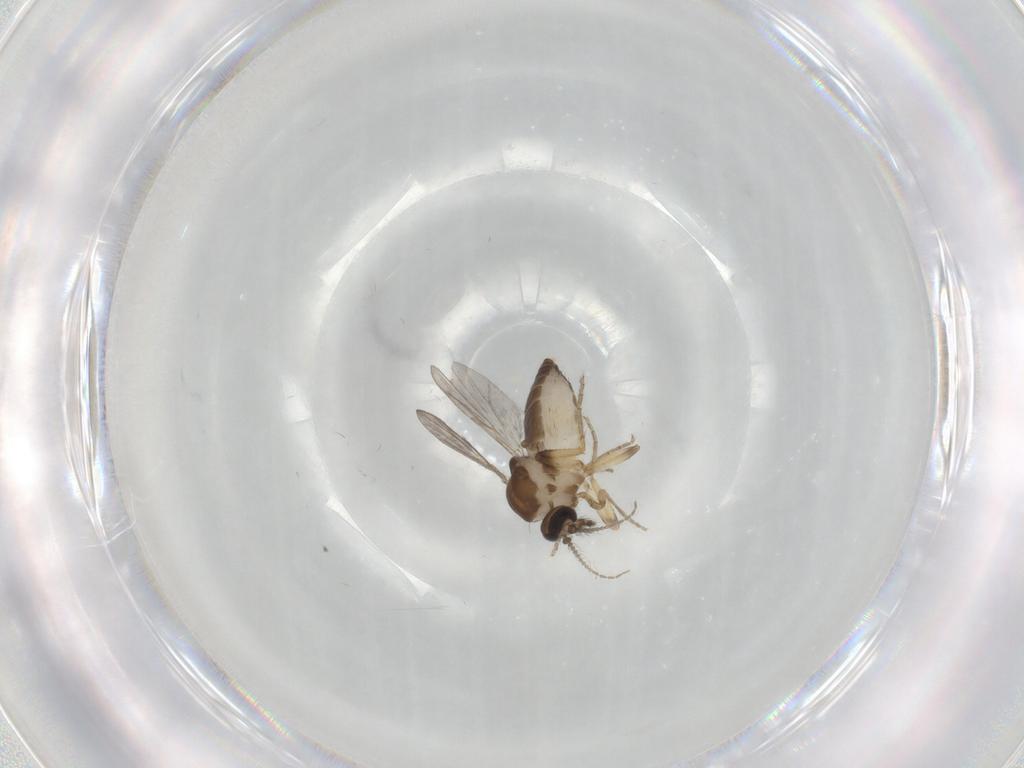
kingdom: Animalia
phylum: Arthropoda
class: Insecta
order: Diptera
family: Ceratopogonidae
